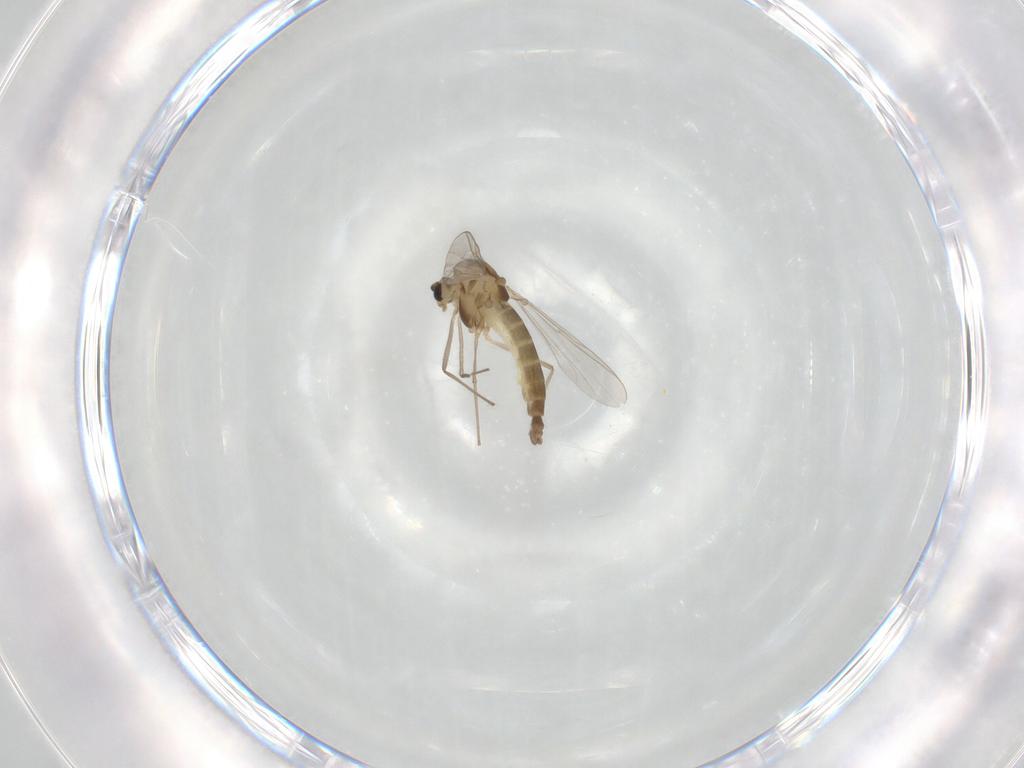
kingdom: Animalia
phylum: Arthropoda
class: Insecta
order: Diptera
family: Chironomidae
